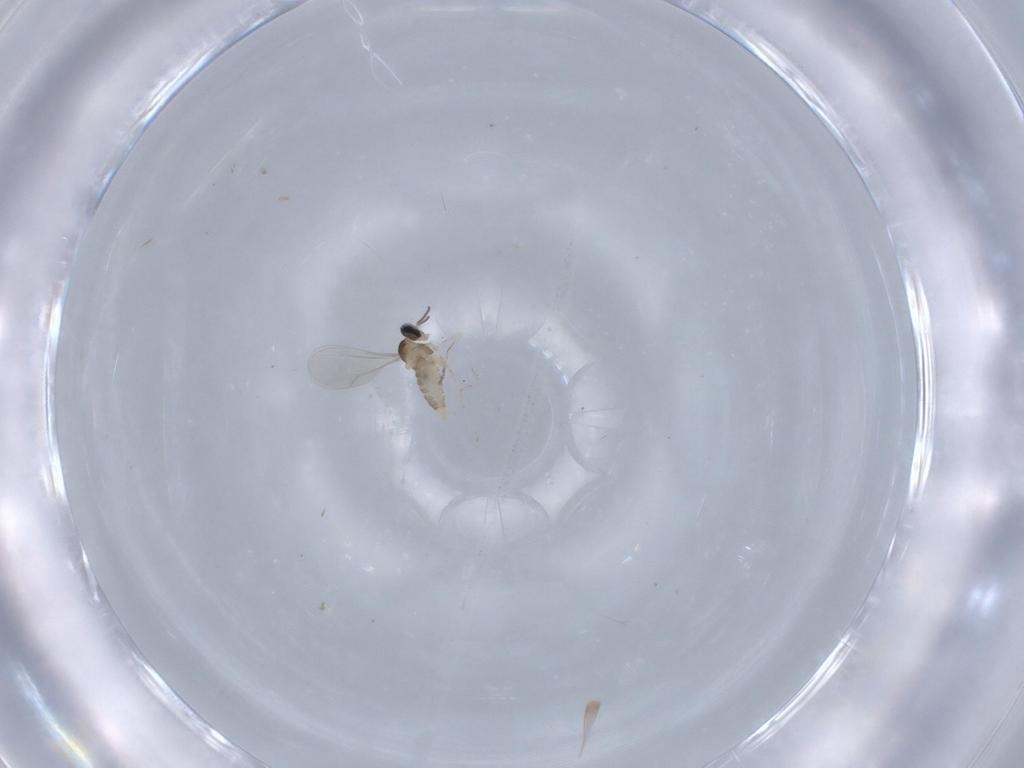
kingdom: Animalia
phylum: Arthropoda
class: Insecta
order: Diptera
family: Cecidomyiidae
